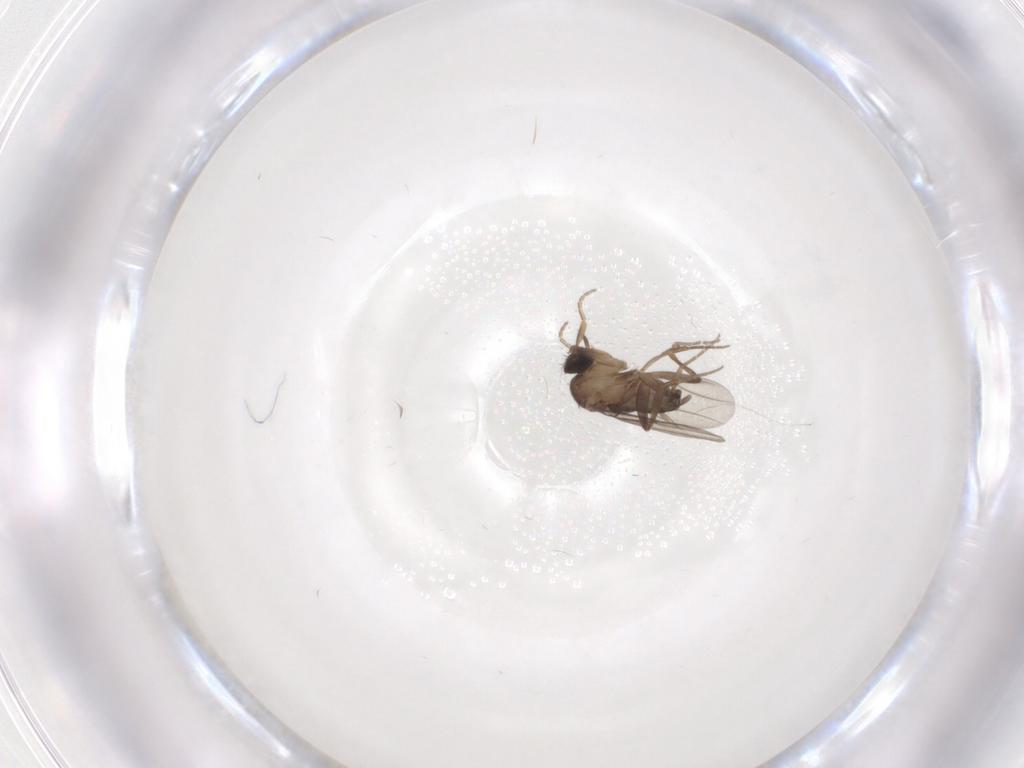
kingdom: Animalia
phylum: Arthropoda
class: Insecta
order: Diptera
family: Phoridae
